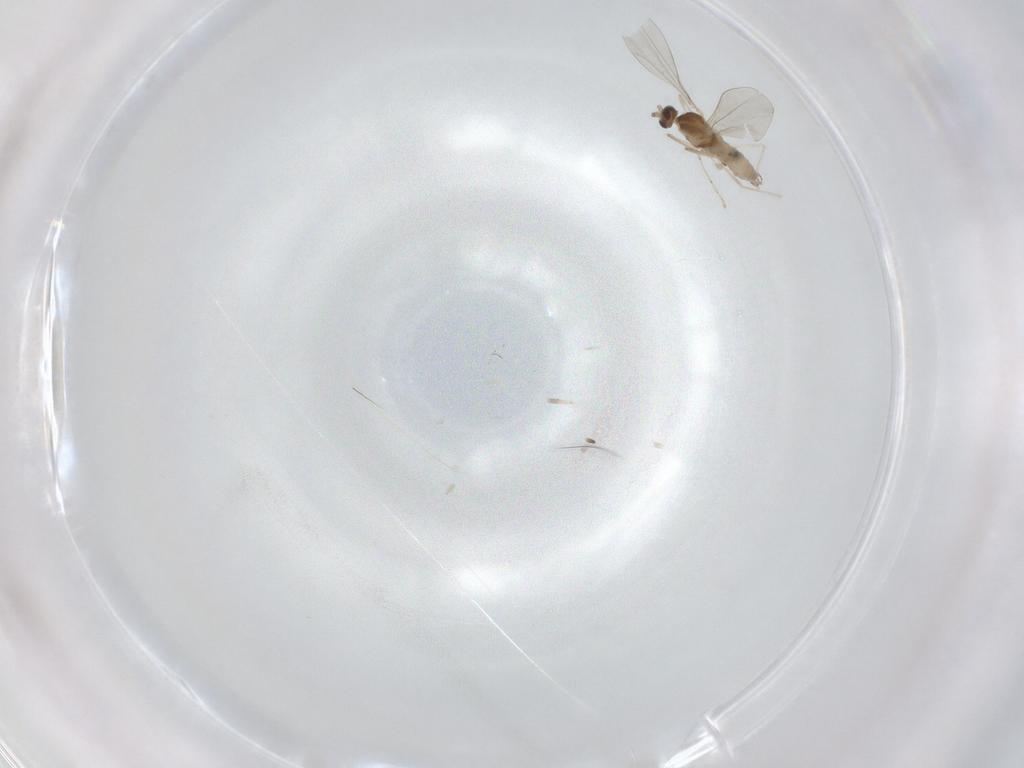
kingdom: Animalia
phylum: Arthropoda
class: Insecta
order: Diptera
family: Cecidomyiidae
